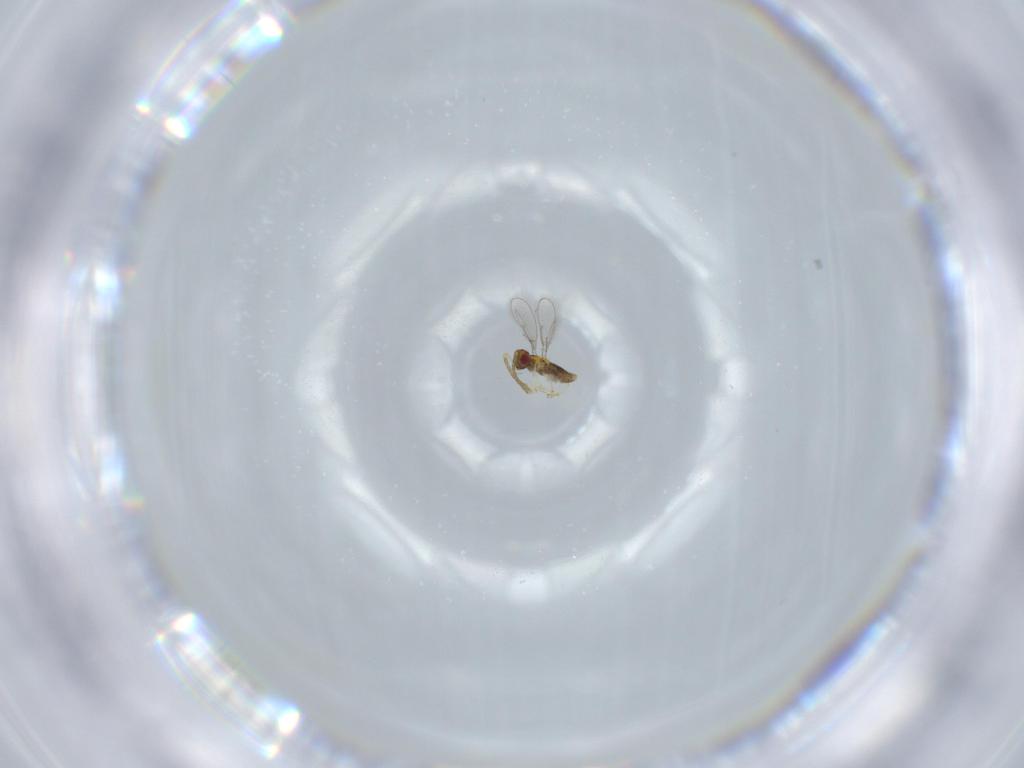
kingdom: Animalia
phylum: Arthropoda
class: Insecta
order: Hymenoptera
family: Aphelinidae
